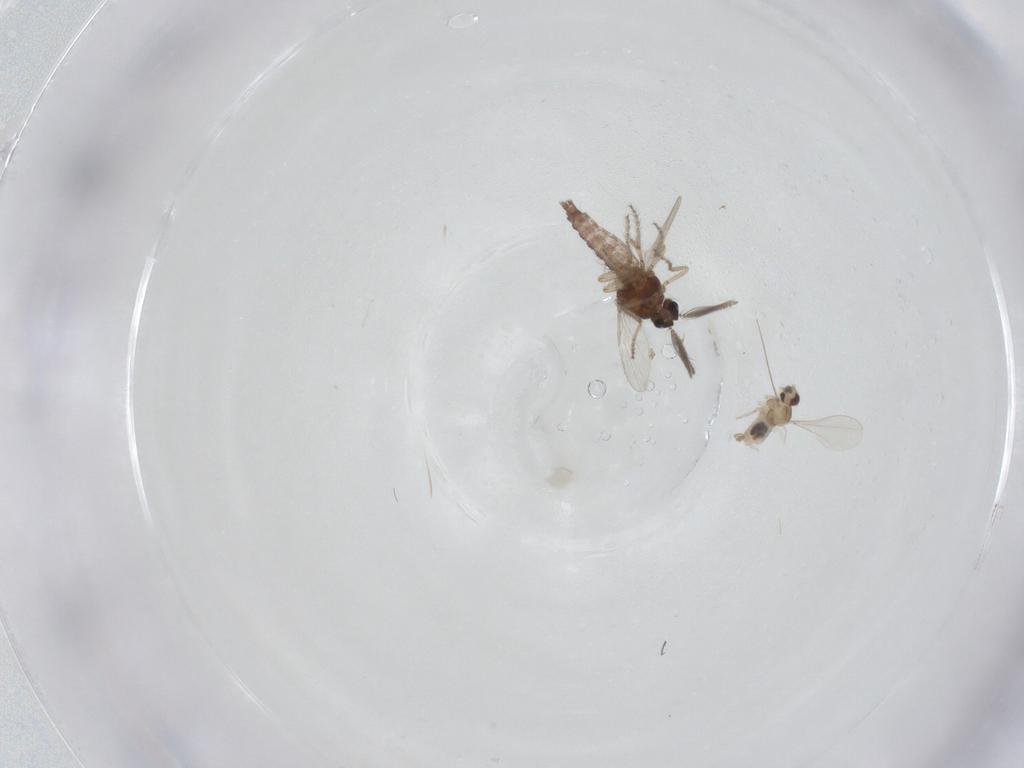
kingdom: Animalia
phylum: Arthropoda
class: Insecta
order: Diptera
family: Ceratopogonidae
